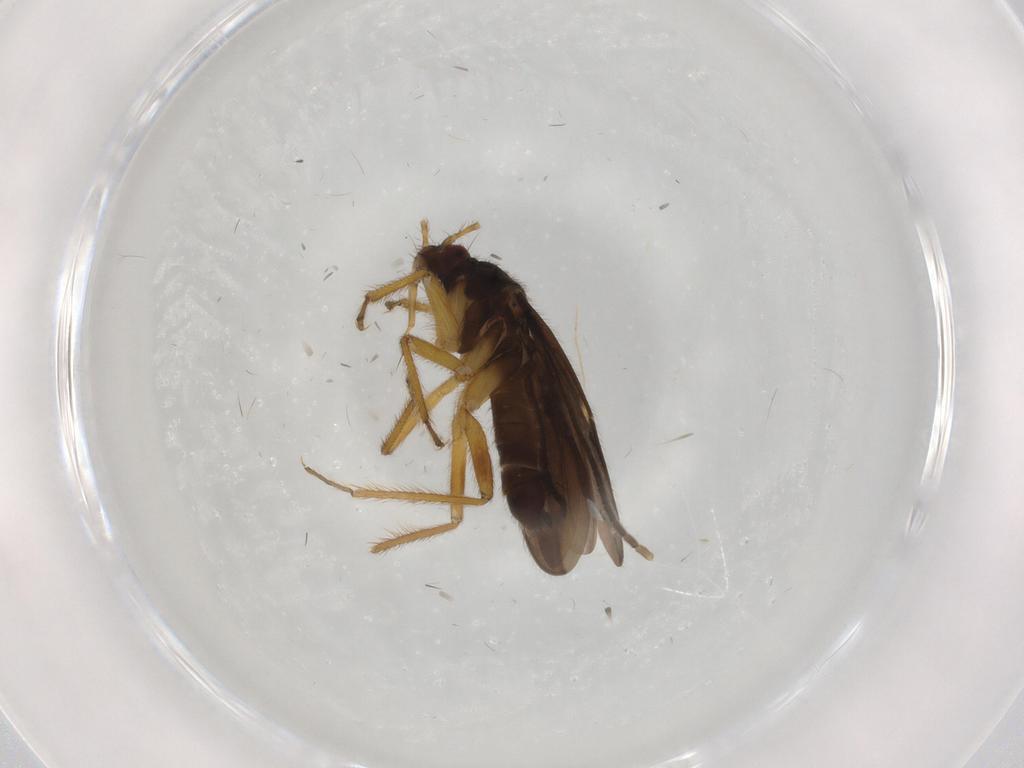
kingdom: Animalia
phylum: Arthropoda
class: Insecta
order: Hemiptera
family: Ceratocombidae
